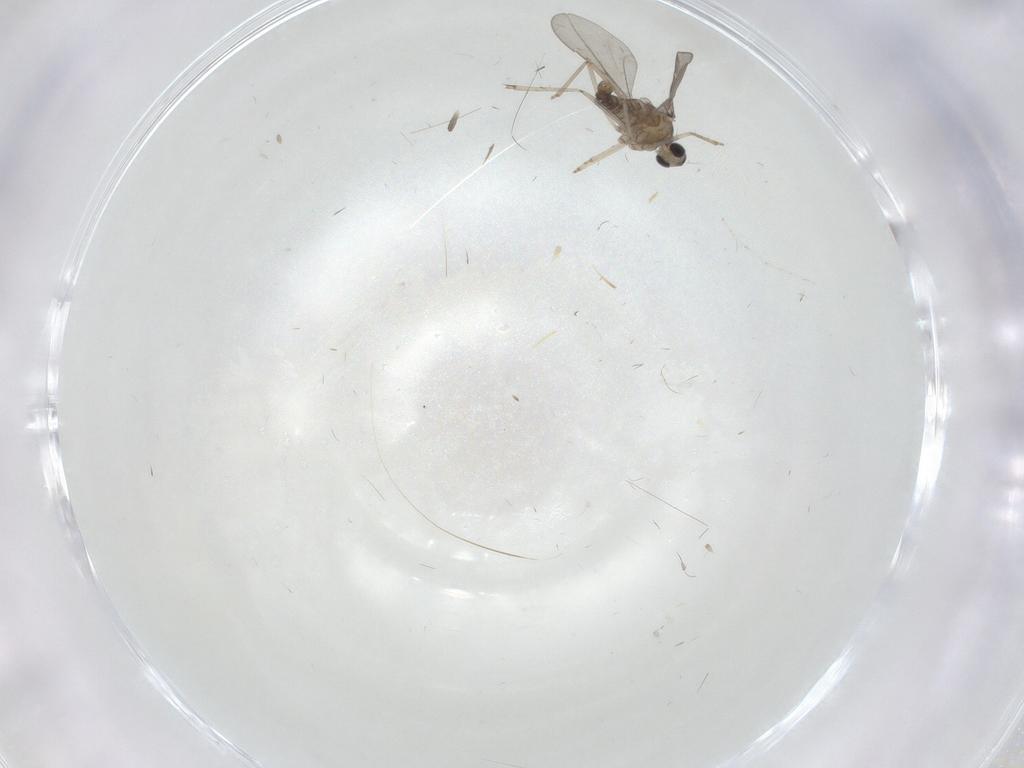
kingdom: Animalia
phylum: Arthropoda
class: Insecta
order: Diptera
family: Cecidomyiidae
